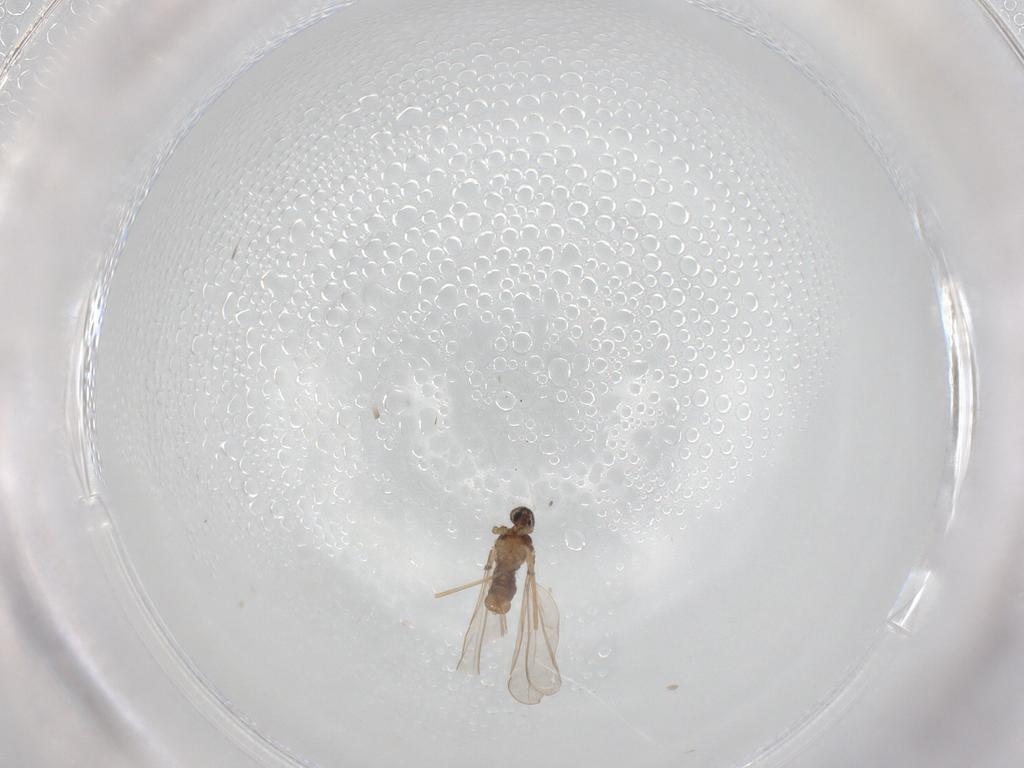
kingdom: Animalia
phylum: Arthropoda
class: Insecta
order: Diptera
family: Cecidomyiidae
